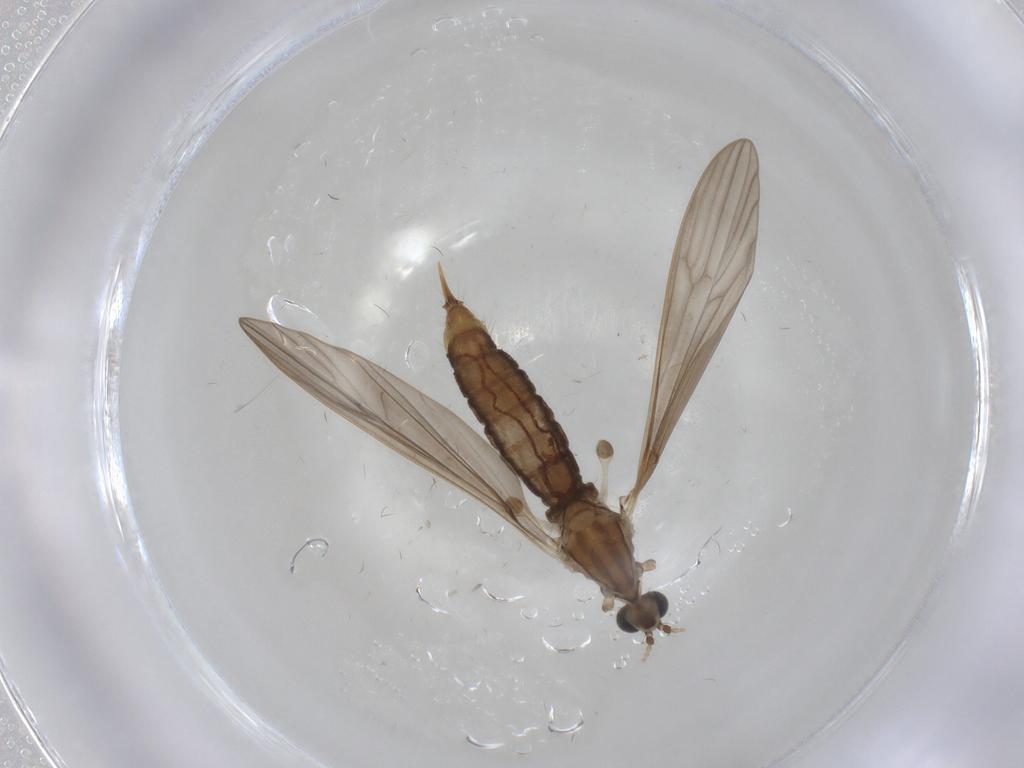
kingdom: Animalia
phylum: Arthropoda
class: Insecta
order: Diptera
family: Limoniidae
